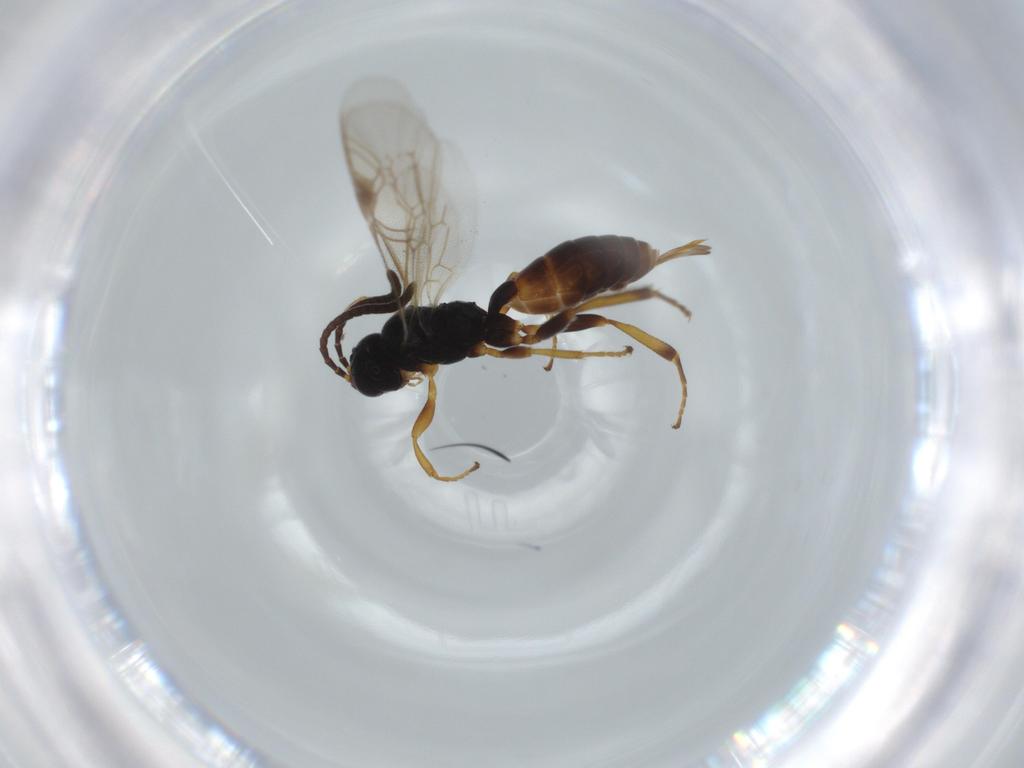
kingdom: Animalia
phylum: Arthropoda
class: Insecta
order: Hymenoptera
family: Ichneumonidae
